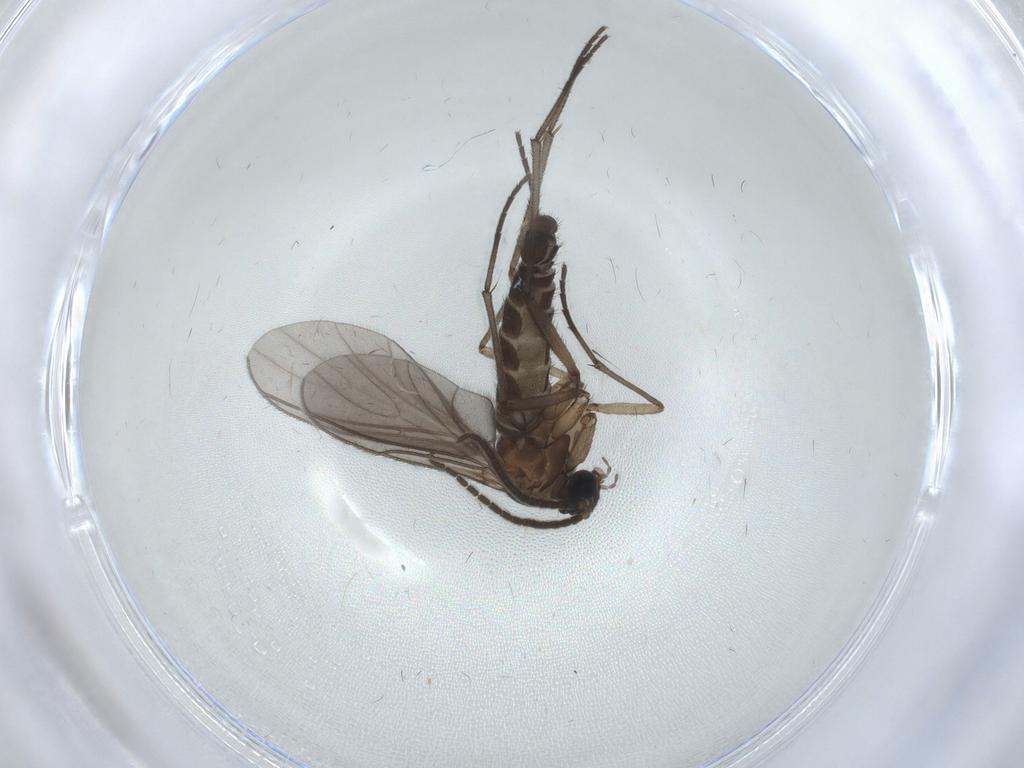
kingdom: Animalia
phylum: Arthropoda
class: Insecta
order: Diptera
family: Sciaridae
